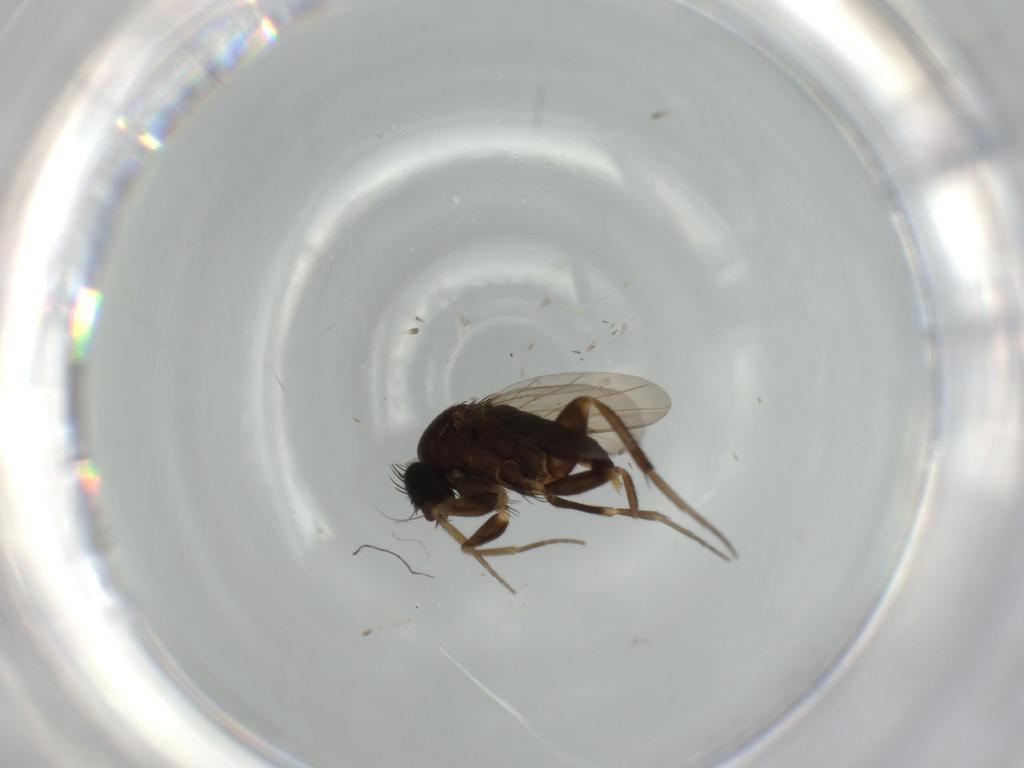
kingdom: Animalia
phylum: Arthropoda
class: Insecta
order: Diptera
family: Phoridae
